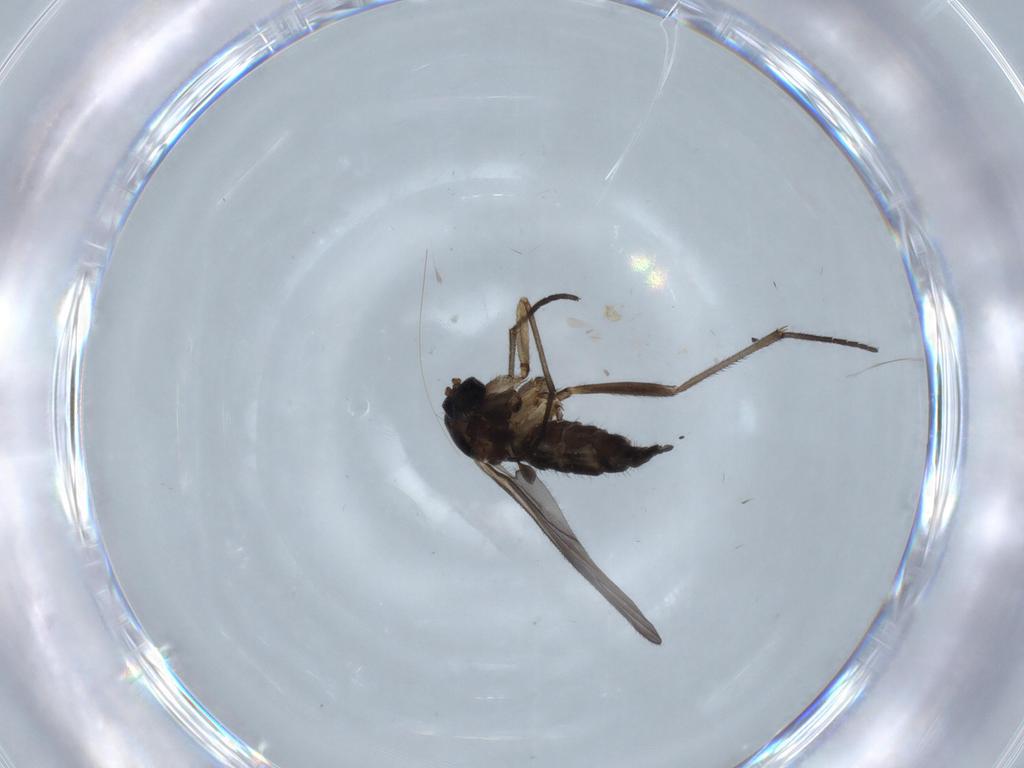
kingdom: Animalia
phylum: Arthropoda
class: Insecta
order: Diptera
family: Sciaridae
